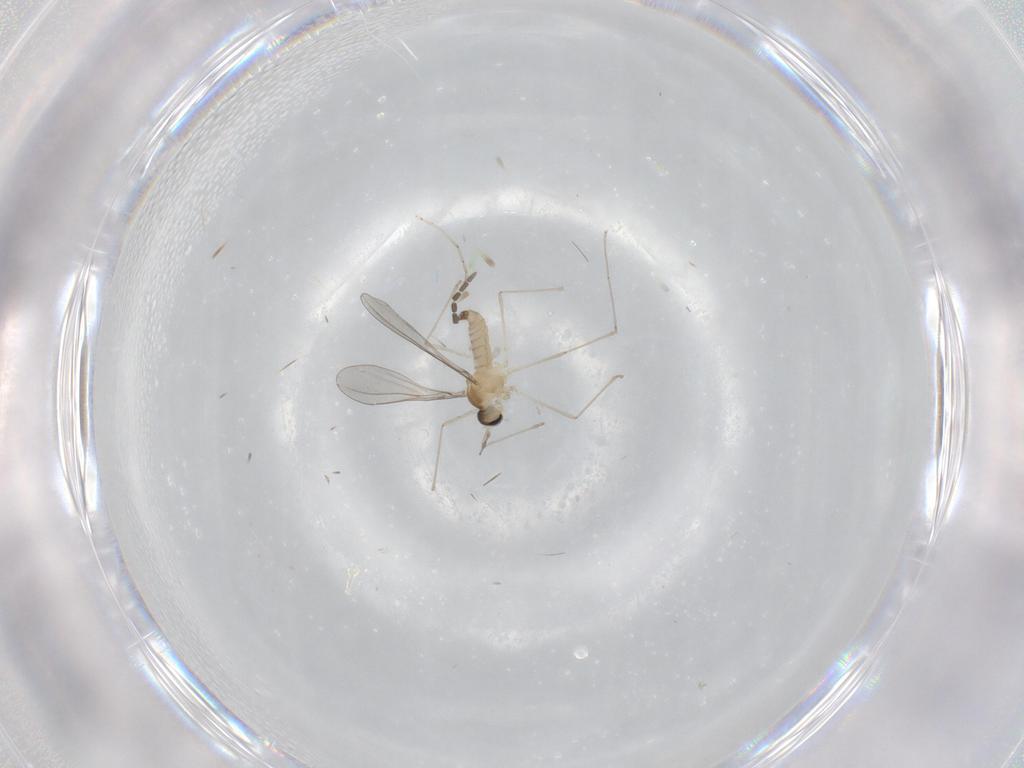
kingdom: Animalia
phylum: Arthropoda
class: Insecta
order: Diptera
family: Cecidomyiidae
